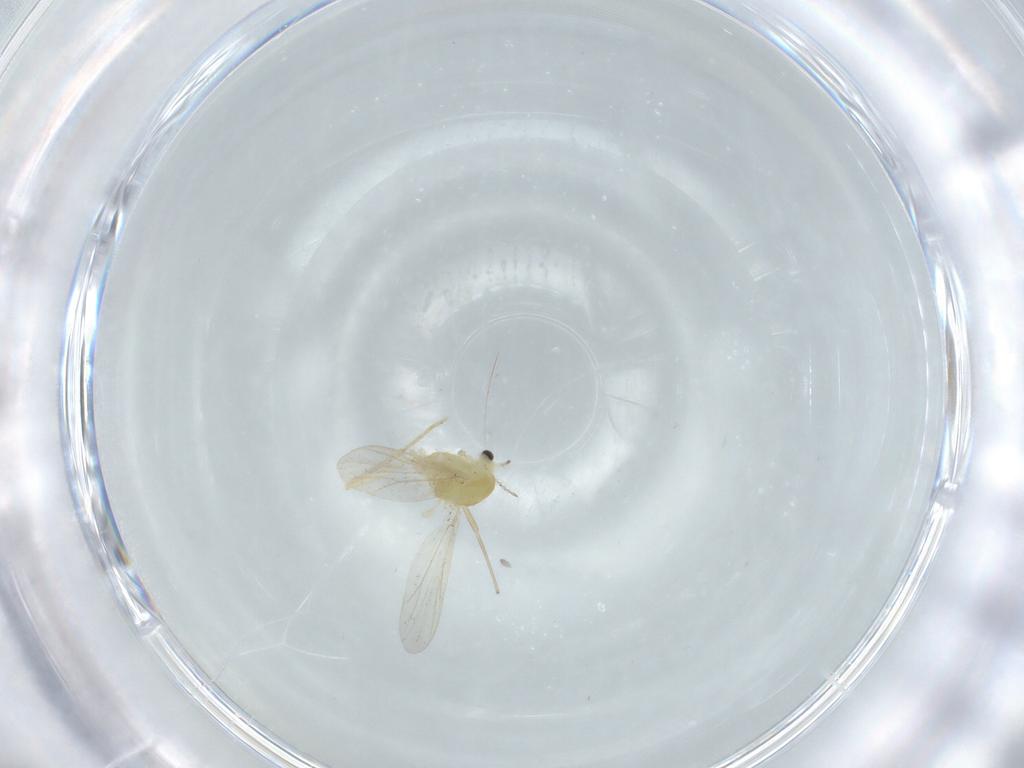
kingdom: Animalia
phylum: Arthropoda
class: Insecta
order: Diptera
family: Chironomidae
